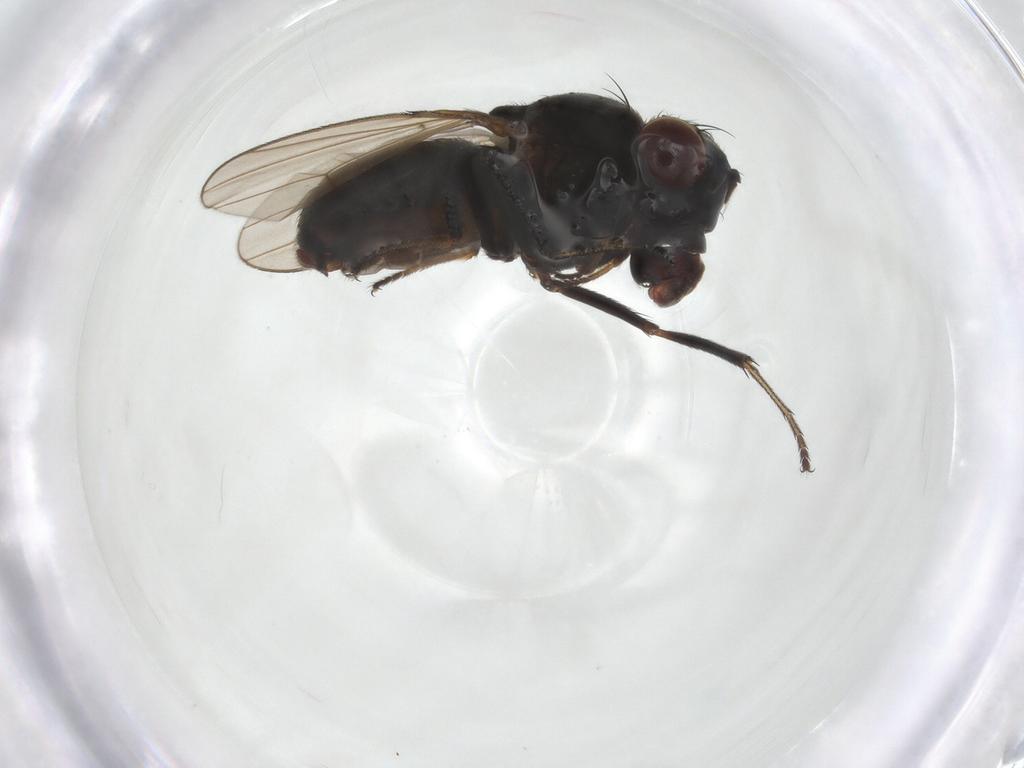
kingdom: Animalia
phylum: Arthropoda
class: Insecta
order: Diptera
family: Ephydridae
